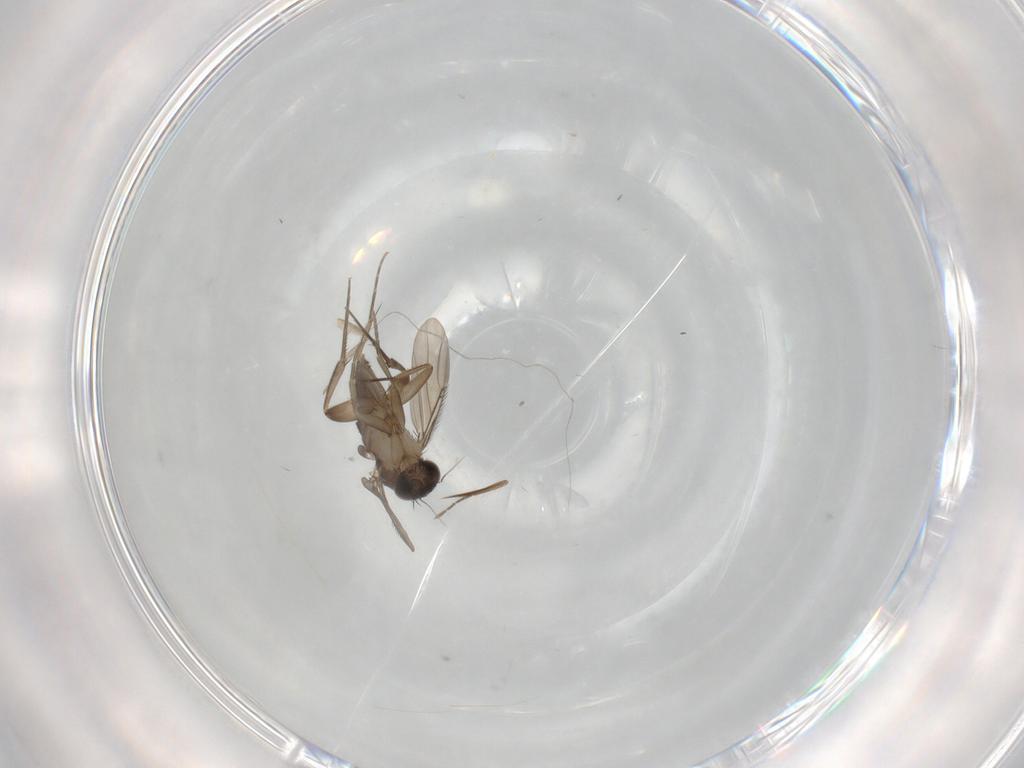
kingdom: Animalia
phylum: Arthropoda
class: Insecta
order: Diptera
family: Phoridae
